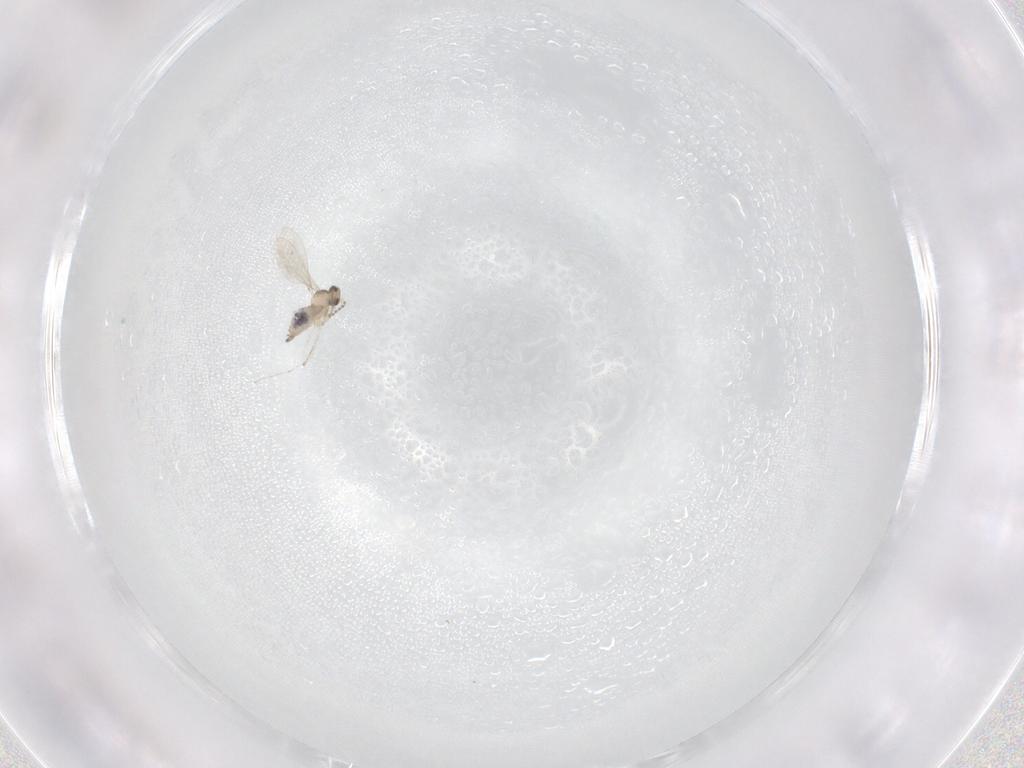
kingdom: Animalia
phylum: Arthropoda
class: Insecta
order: Diptera
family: Cecidomyiidae
